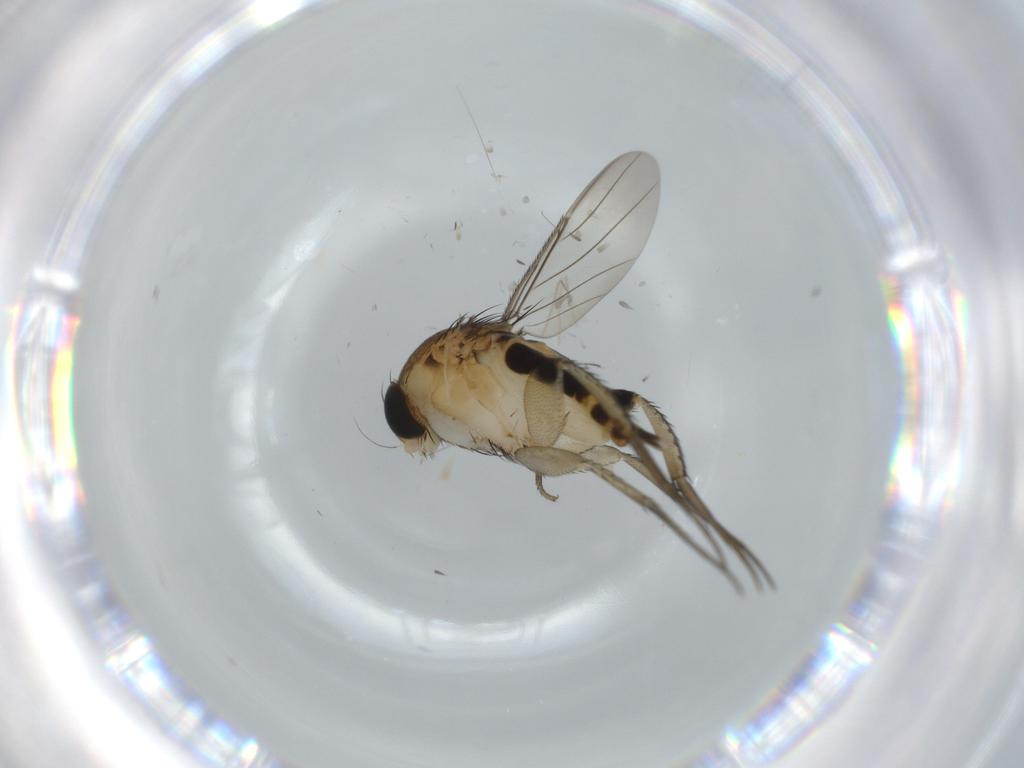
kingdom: Animalia
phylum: Arthropoda
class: Insecta
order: Diptera
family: Phoridae
